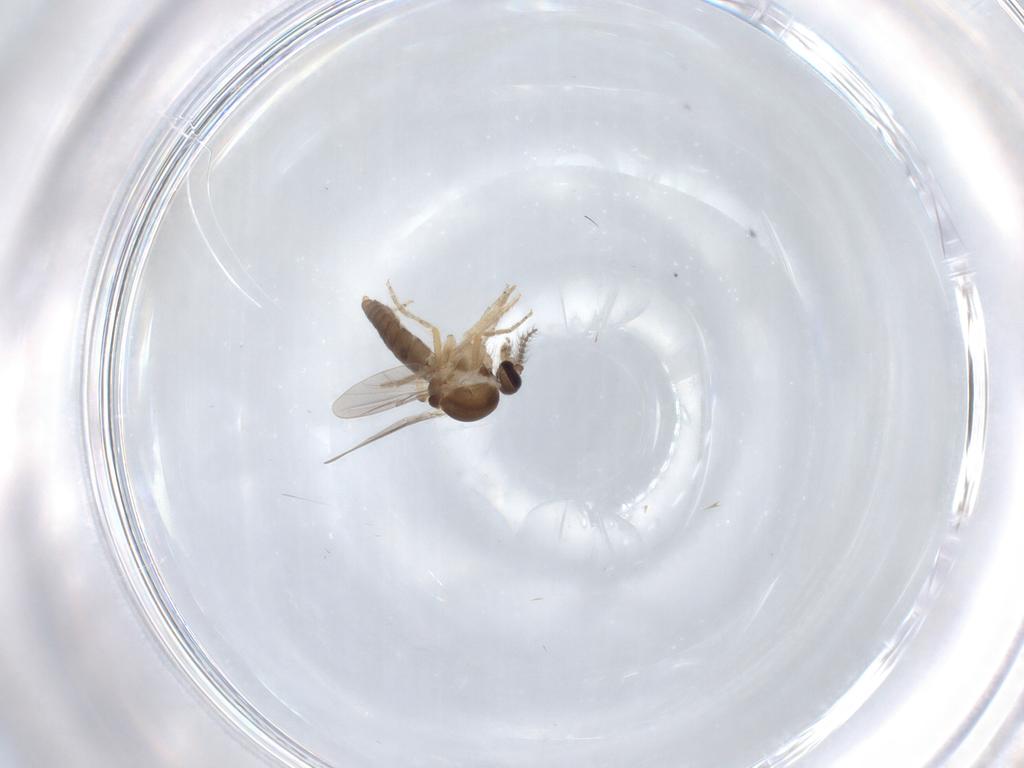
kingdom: Animalia
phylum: Arthropoda
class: Insecta
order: Diptera
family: Ceratopogonidae
